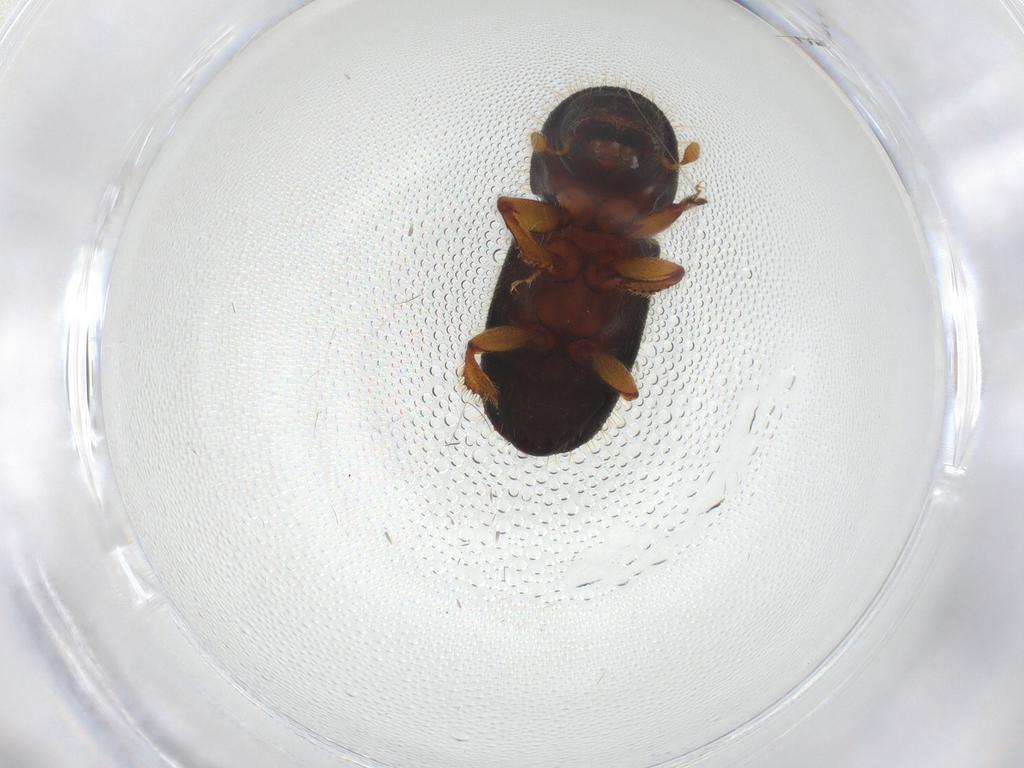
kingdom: Animalia
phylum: Arthropoda
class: Insecta
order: Coleoptera
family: Curculionidae
